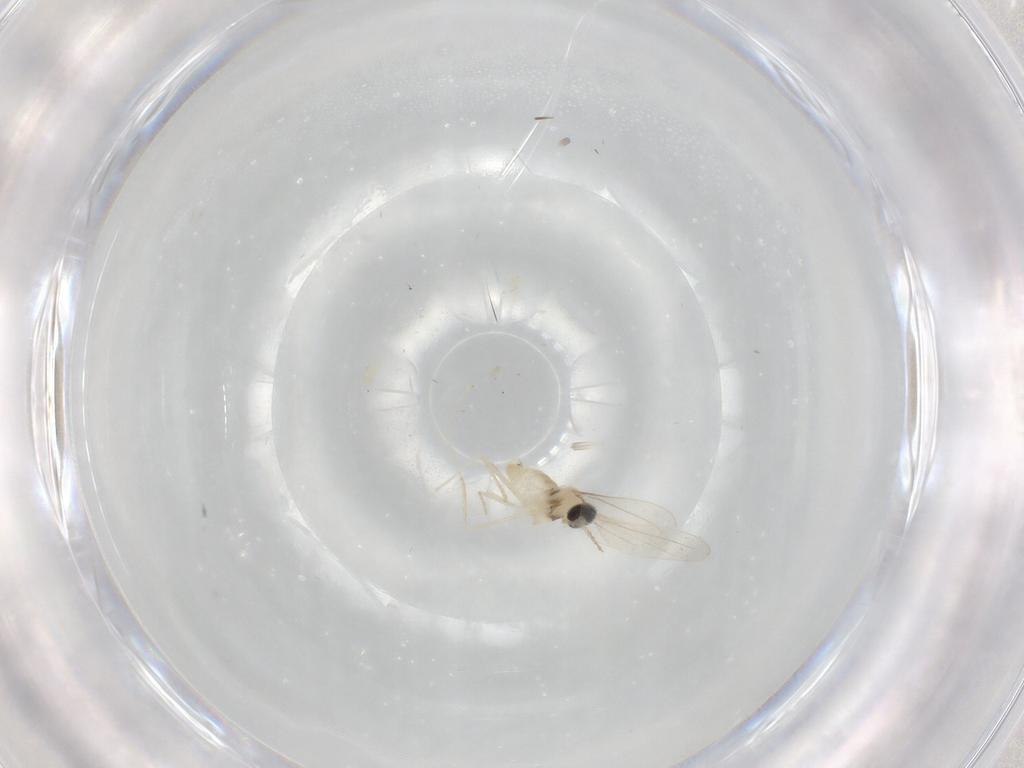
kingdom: Animalia
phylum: Arthropoda
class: Insecta
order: Diptera
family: Cecidomyiidae
